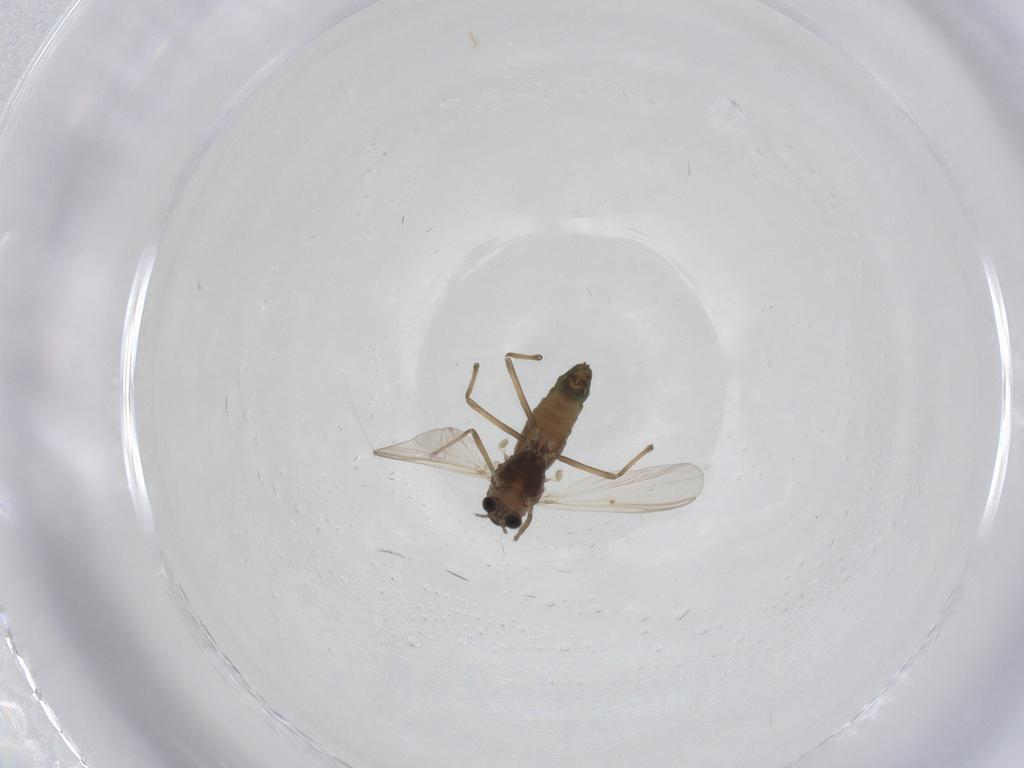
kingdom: Animalia
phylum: Arthropoda
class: Insecta
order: Diptera
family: Chironomidae
